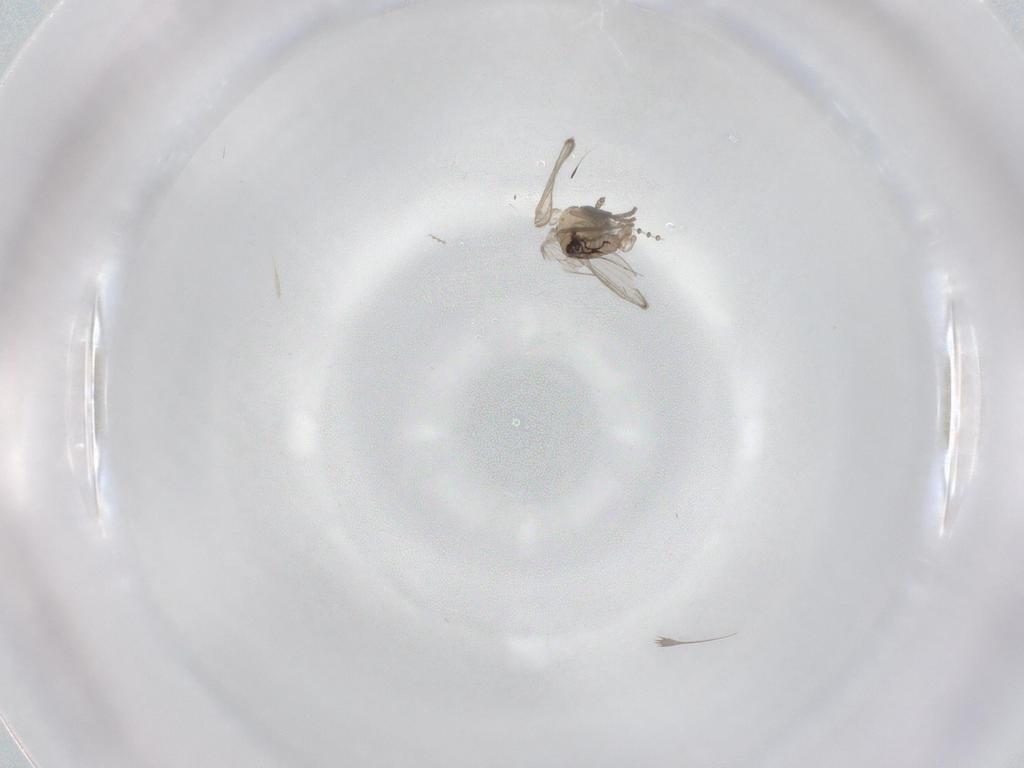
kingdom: Animalia
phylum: Arthropoda
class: Insecta
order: Diptera
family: Psychodidae
